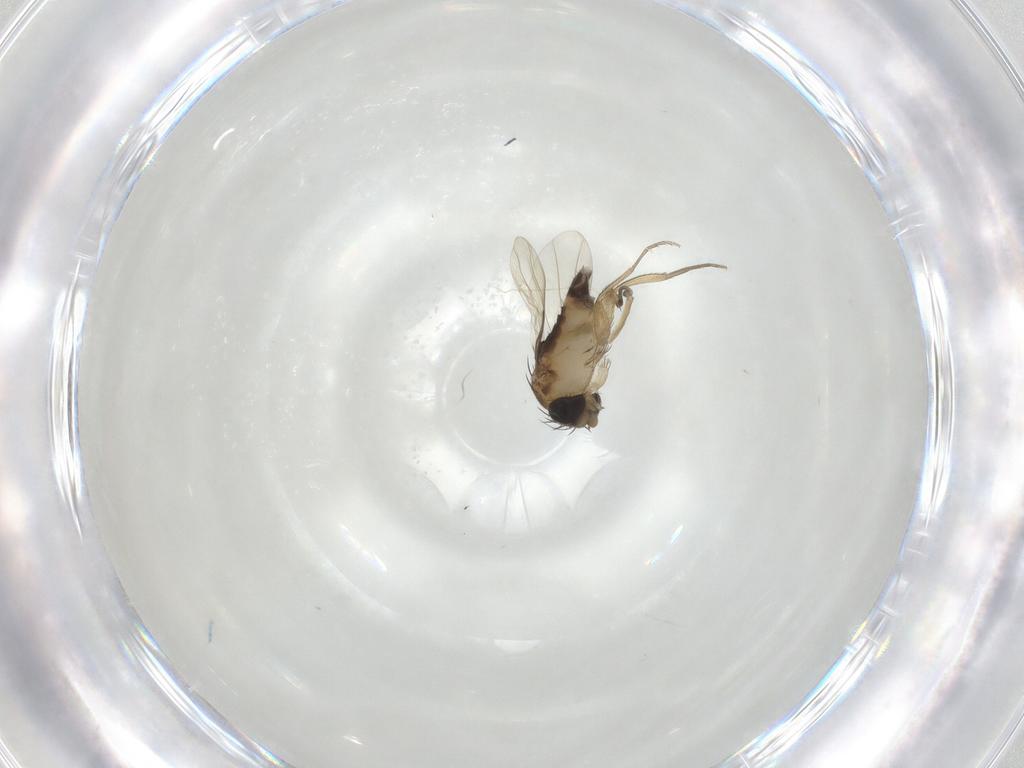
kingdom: Animalia
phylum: Arthropoda
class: Insecta
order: Diptera
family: Phoridae
